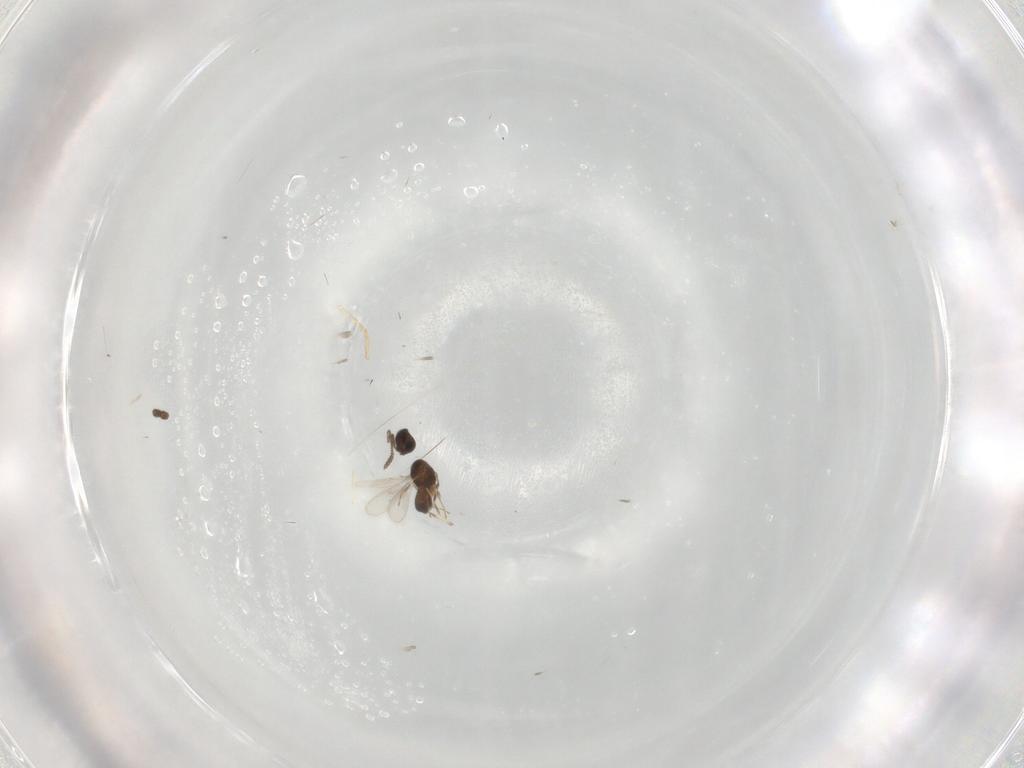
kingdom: Animalia
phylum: Arthropoda
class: Insecta
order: Hymenoptera
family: Scelionidae
